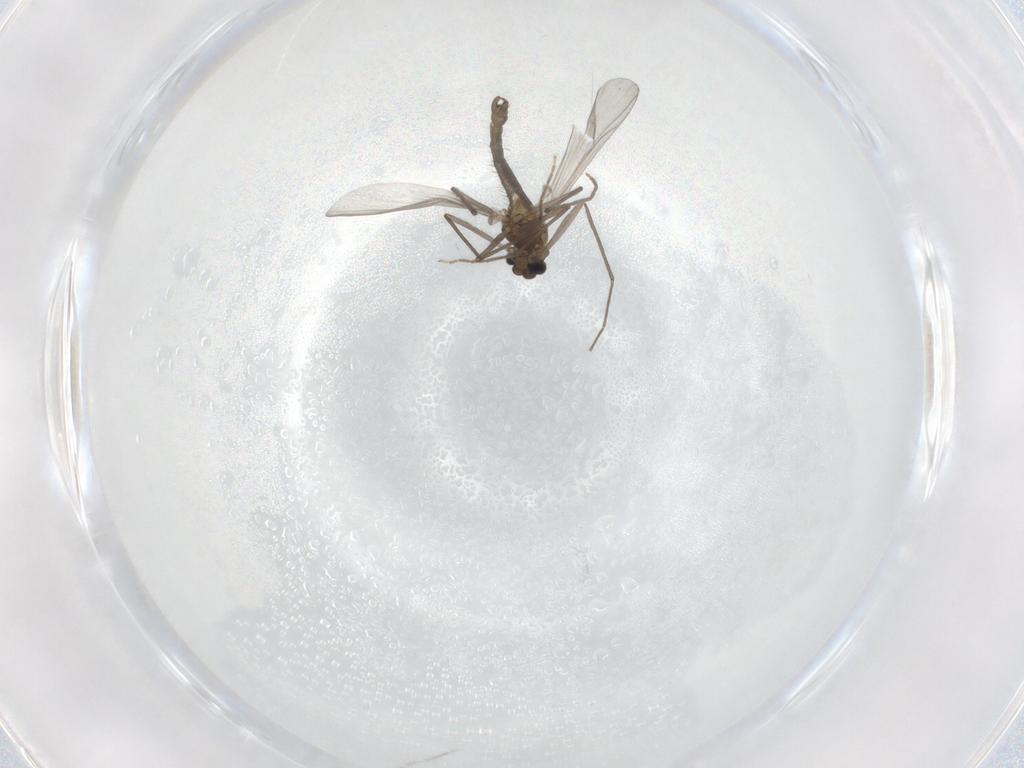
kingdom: Animalia
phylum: Arthropoda
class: Insecta
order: Diptera
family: Chironomidae
